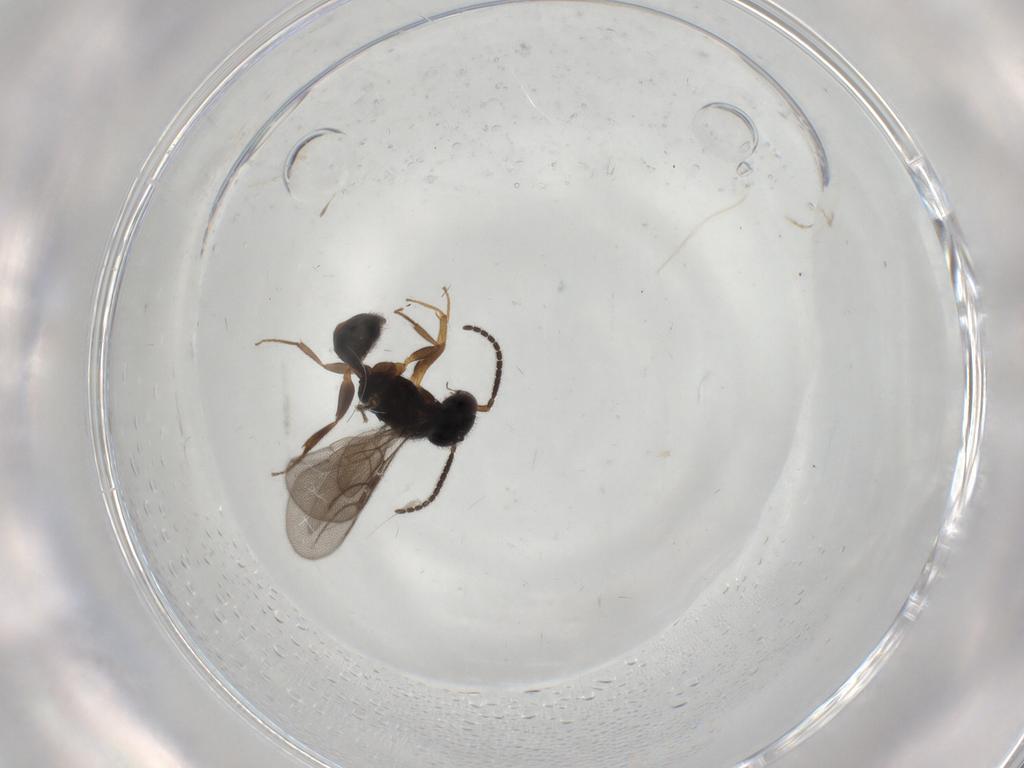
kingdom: Animalia
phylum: Arthropoda
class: Insecta
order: Hymenoptera
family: Bethylidae
